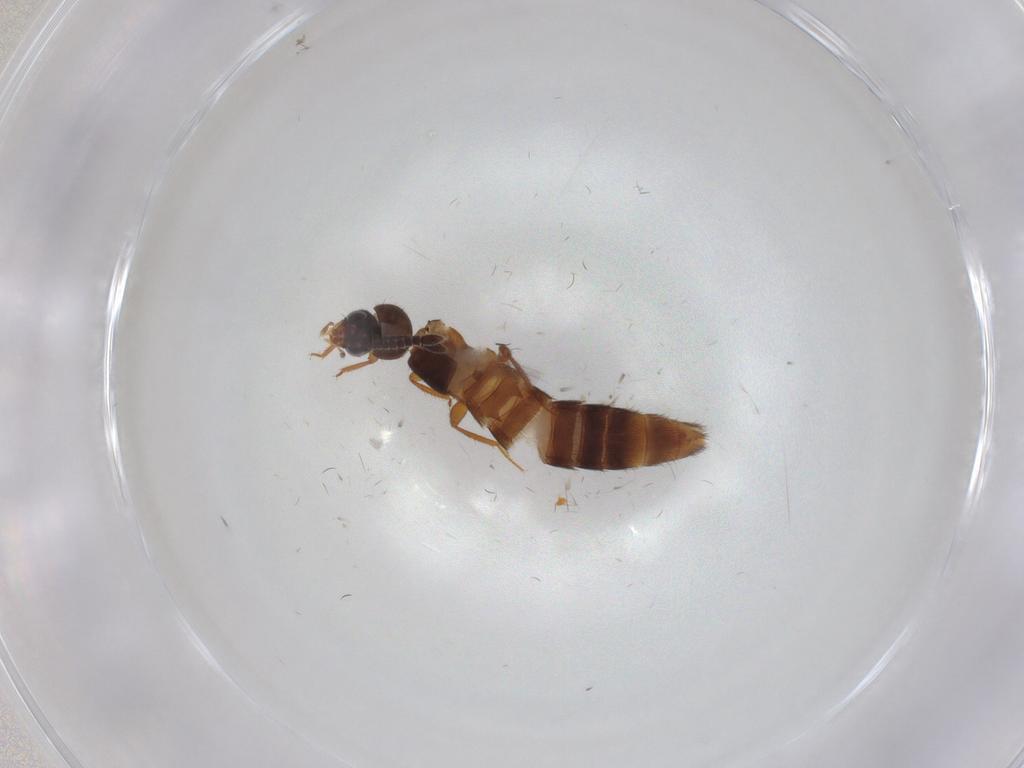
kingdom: Animalia
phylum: Arthropoda
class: Insecta
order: Coleoptera
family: Staphylinidae
